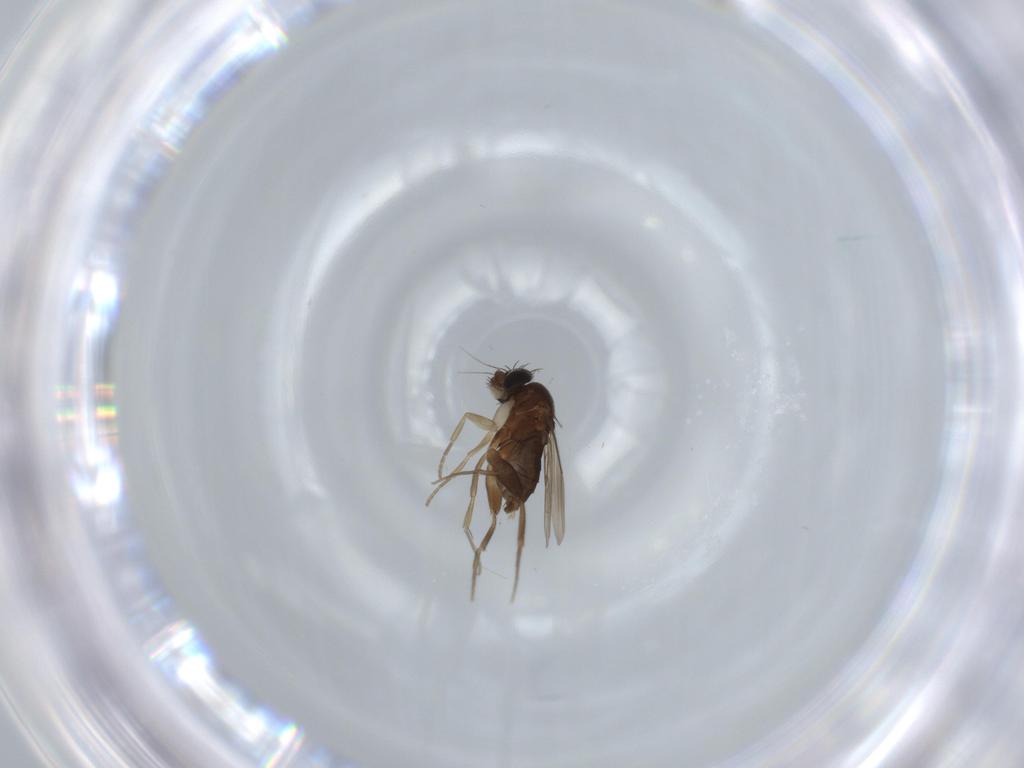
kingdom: Animalia
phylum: Arthropoda
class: Insecta
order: Diptera
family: Phoridae
